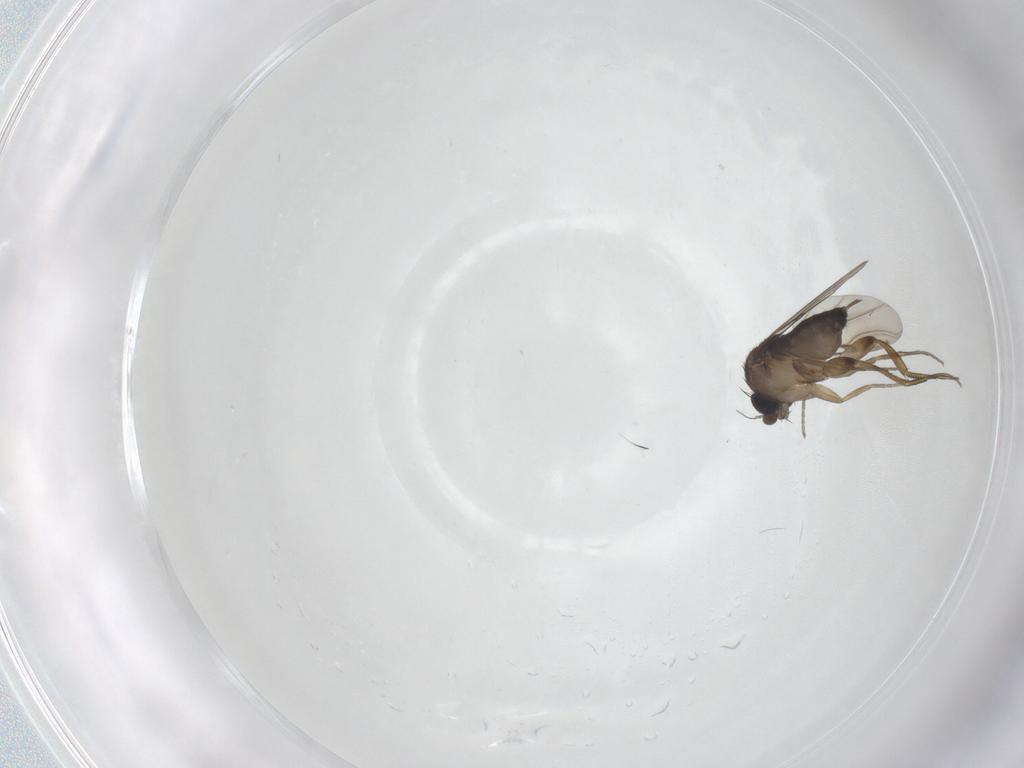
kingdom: Animalia
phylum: Arthropoda
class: Insecta
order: Diptera
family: Phoridae
